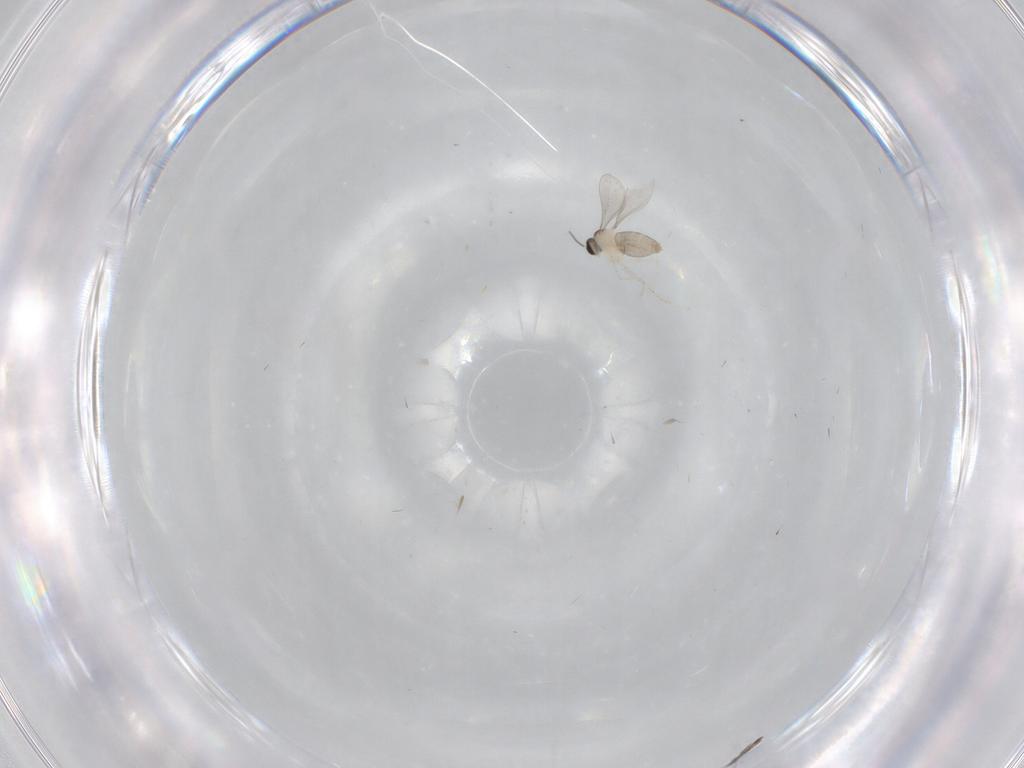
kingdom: Animalia
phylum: Arthropoda
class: Insecta
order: Diptera
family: Cecidomyiidae
